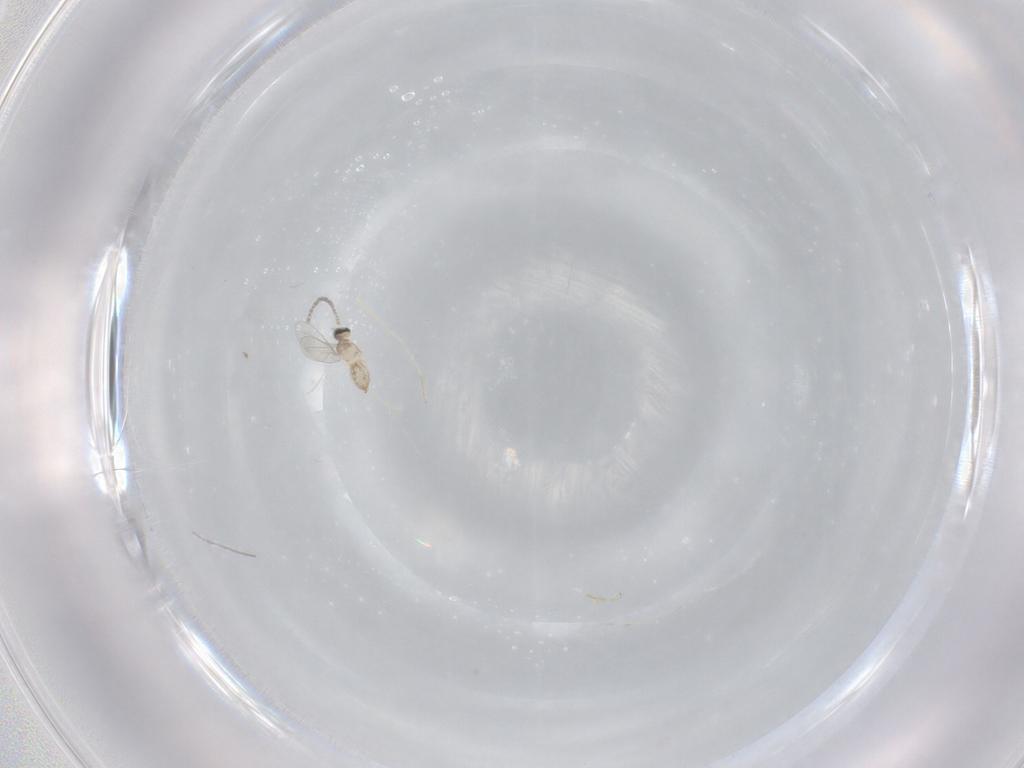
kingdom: Animalia
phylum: Arthropoda
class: Insecta
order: Diptera
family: Cecidomyiidae
